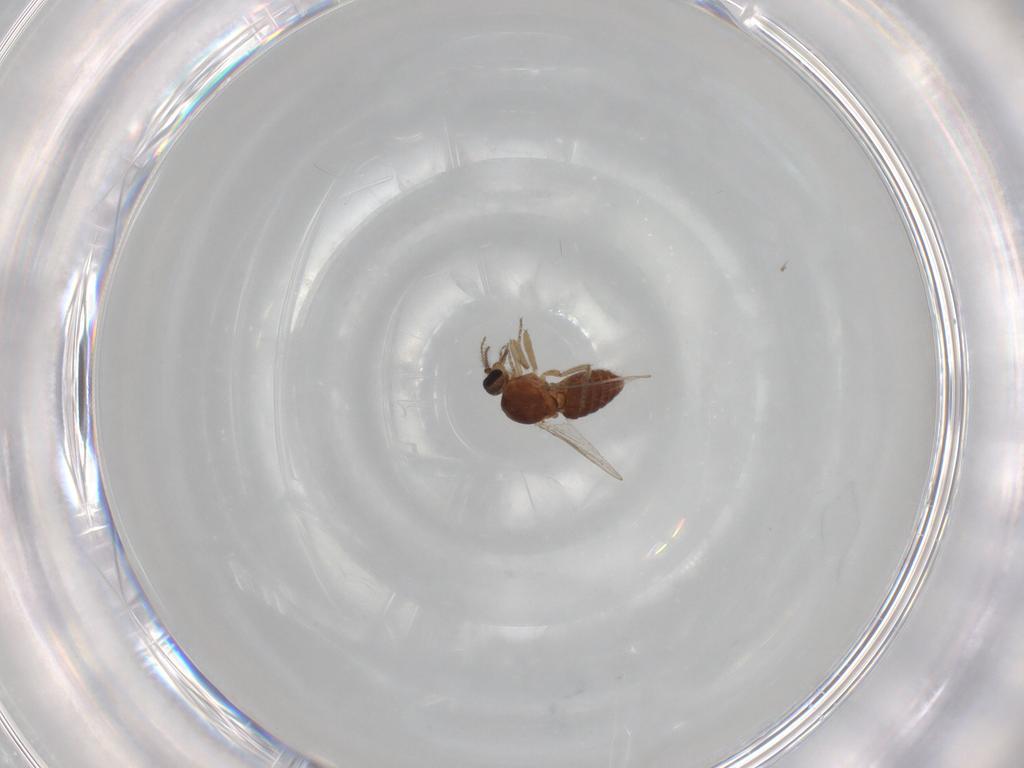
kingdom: Animalia
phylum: Arthropoda
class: Insecta
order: Diptera
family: Ceratopogonidae
